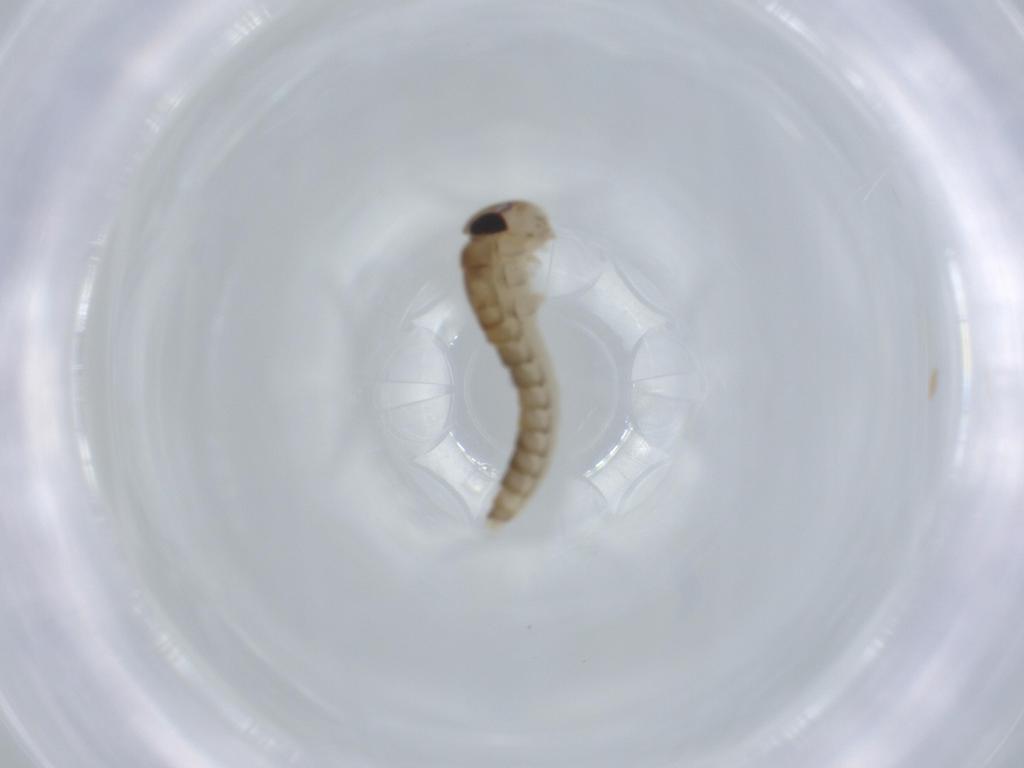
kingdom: Animalia
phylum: Arthropoda
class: Insecta
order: Ephemeroptera
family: Baetidae
